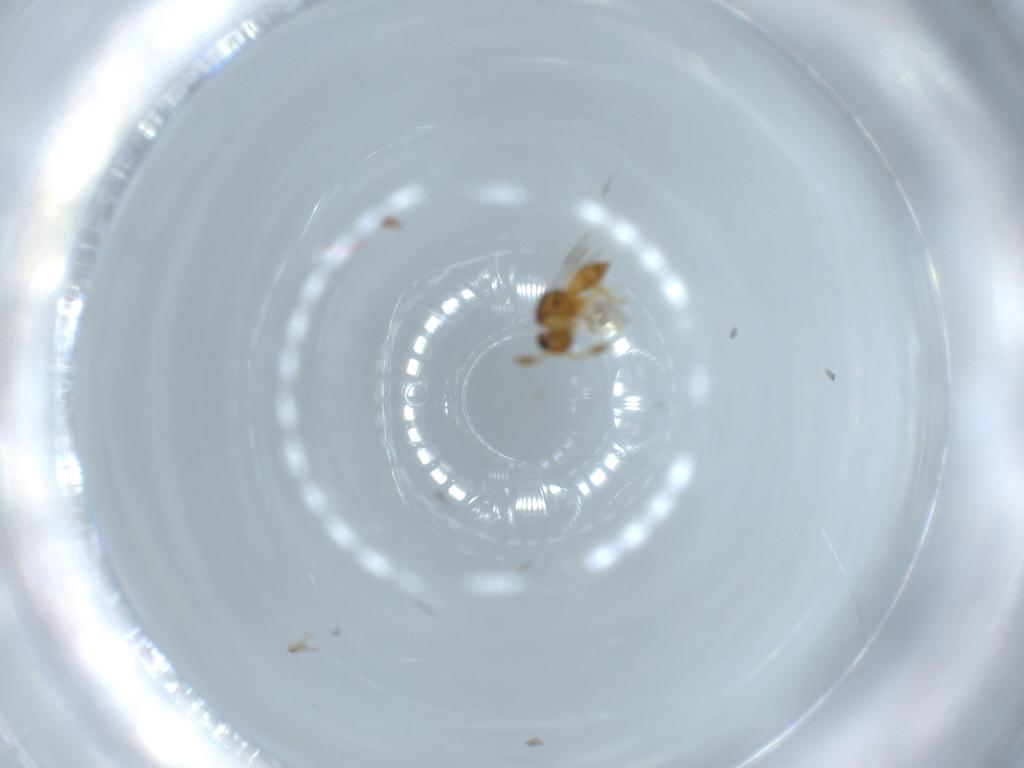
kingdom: Animalia
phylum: Arthropoda
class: Insecta
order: Hymenoptera
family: Scelionidae
